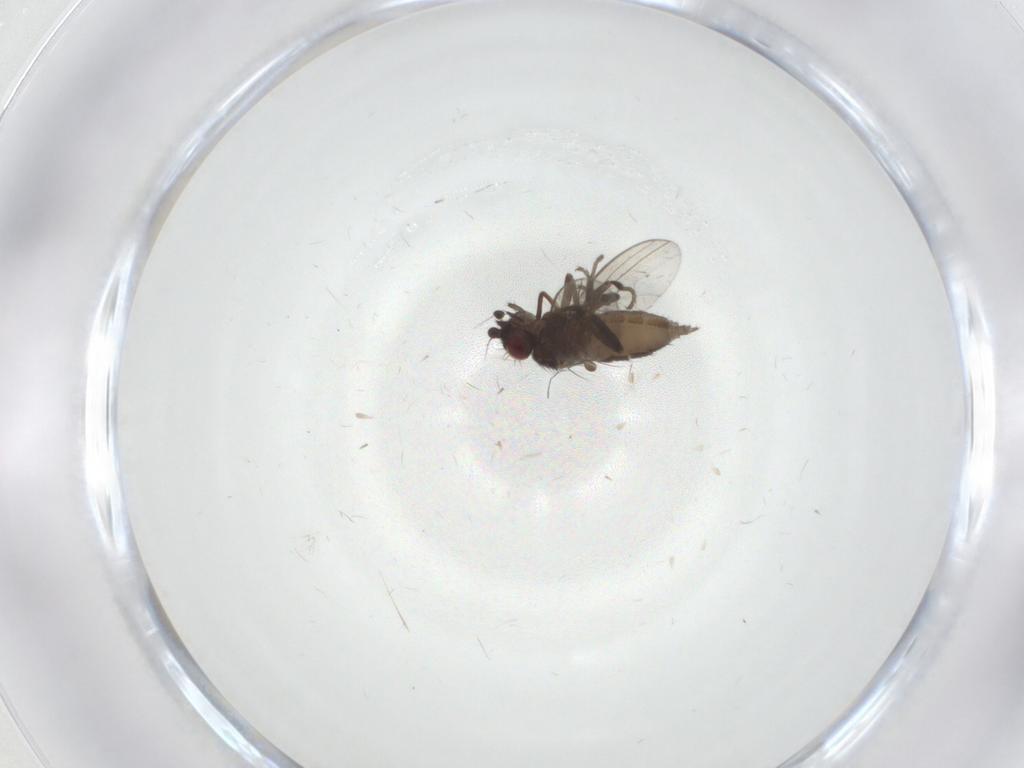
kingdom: Animalia
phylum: Arthropoda
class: Insecta
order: Diptera
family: Milichiidae
